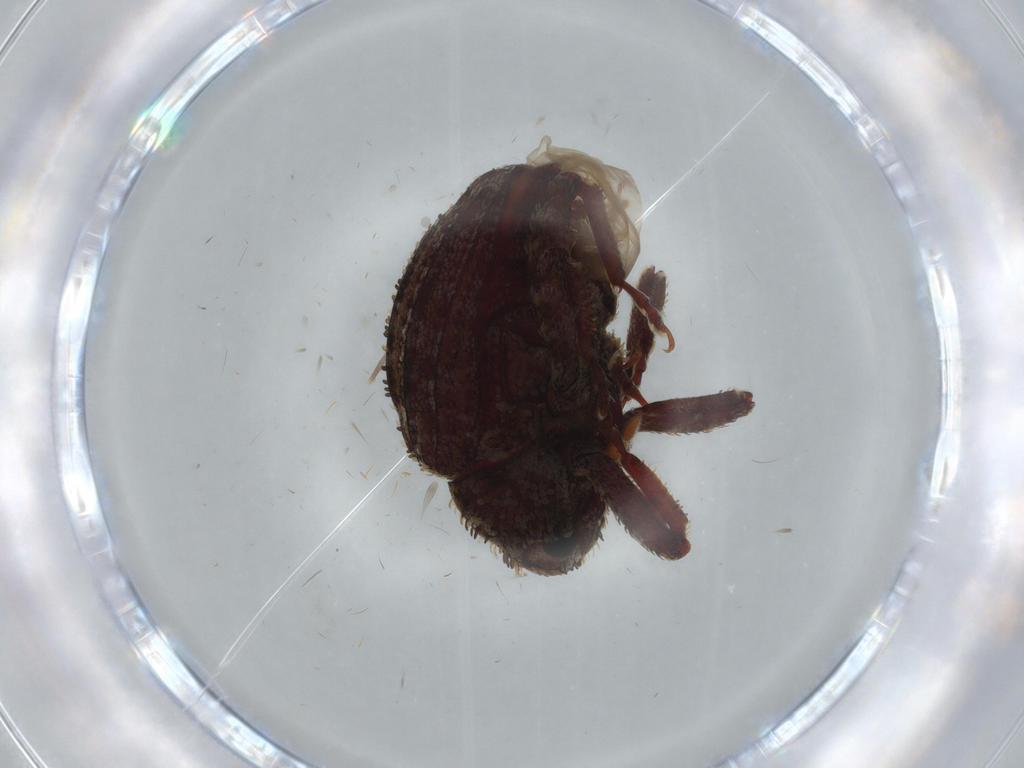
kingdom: Animalia
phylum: Arthropoda
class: Insecta
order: Coleoptera
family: Curculionidae
